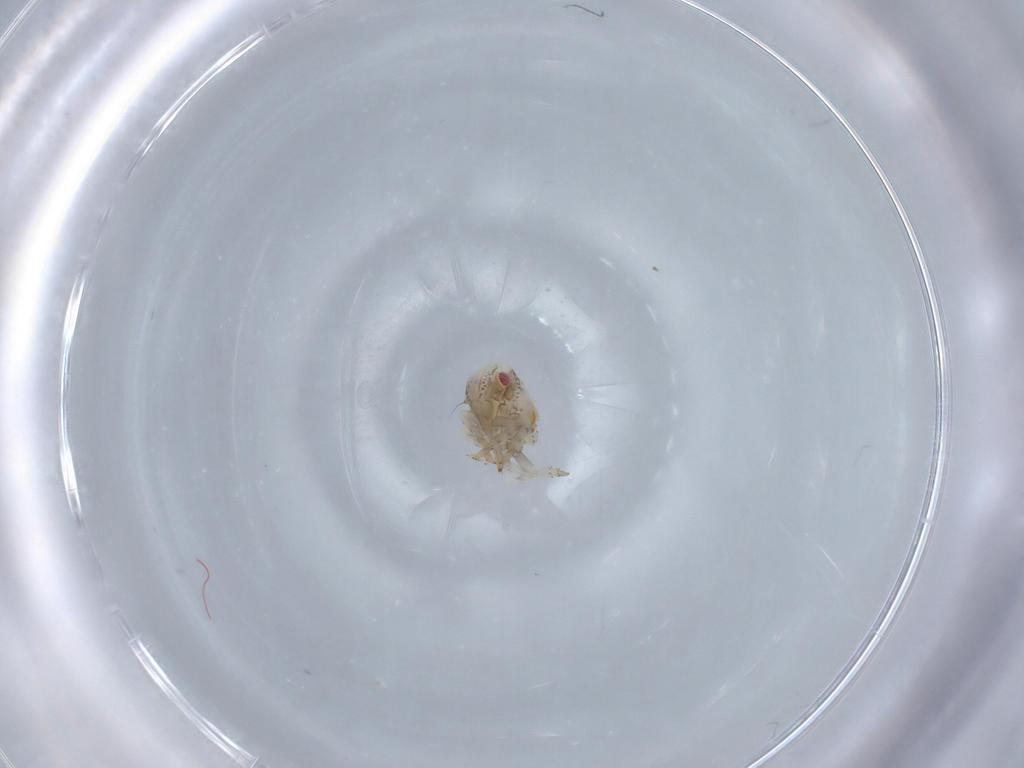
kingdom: Animalia
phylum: Arthropoda
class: Insecta
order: Hemiptera
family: Acanaloniidae
